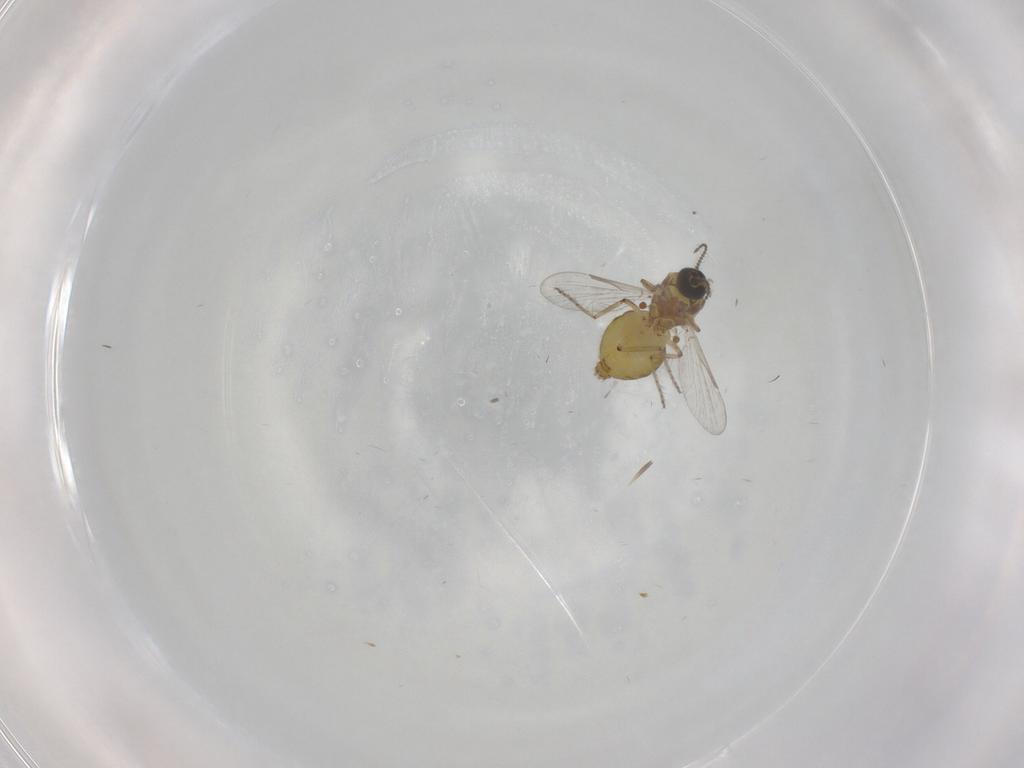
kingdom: Animalia
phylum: Arthropoda
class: Insecta
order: Diptera
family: Ceratopogonidae
